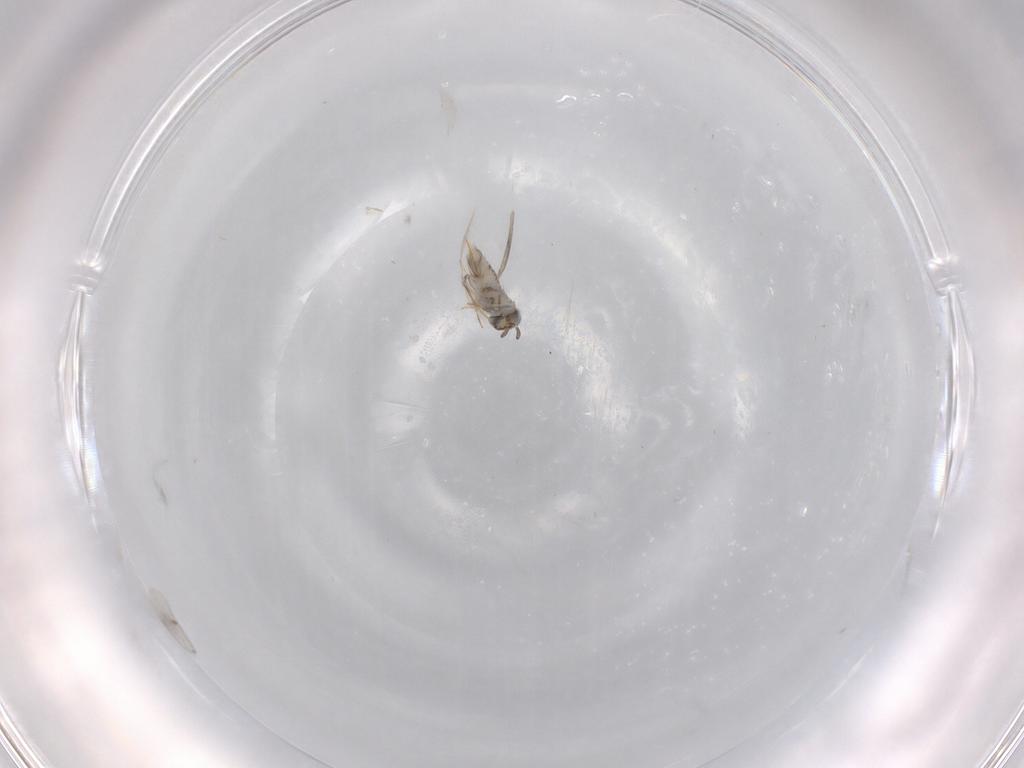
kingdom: Animalia
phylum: Arthropoda
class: Insecta
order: Hymenoptera
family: Aphelinidae
